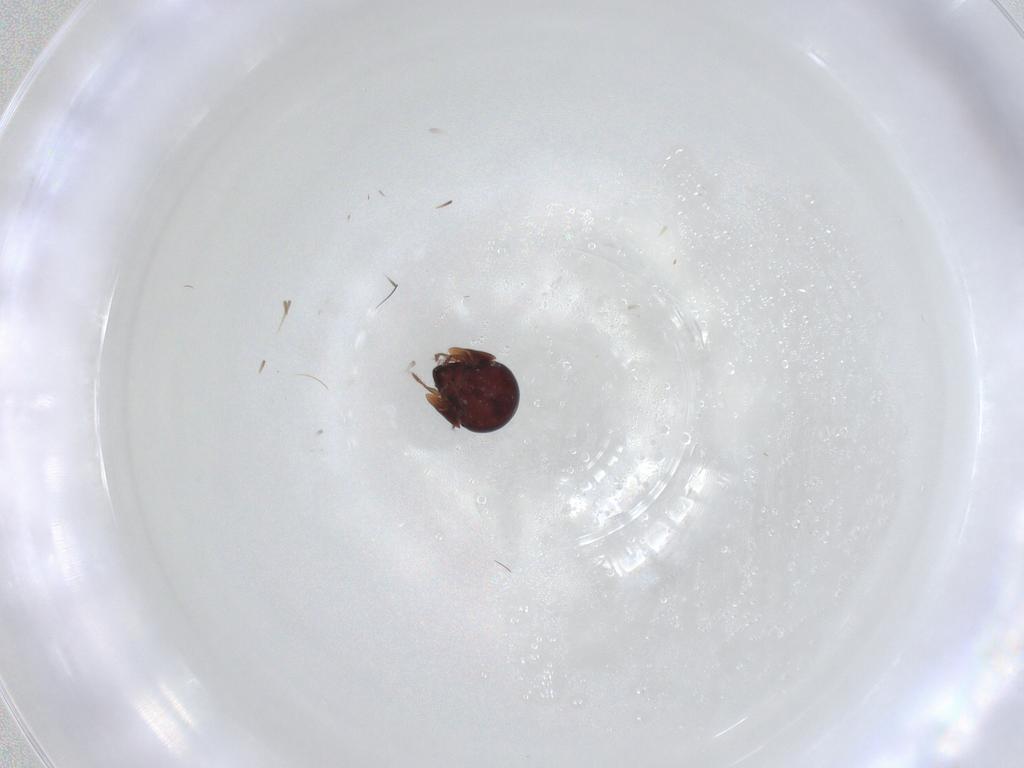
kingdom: Animalia
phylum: Arthropoda
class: Arachnida
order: Sarcoptiformes
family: Galumnidae
